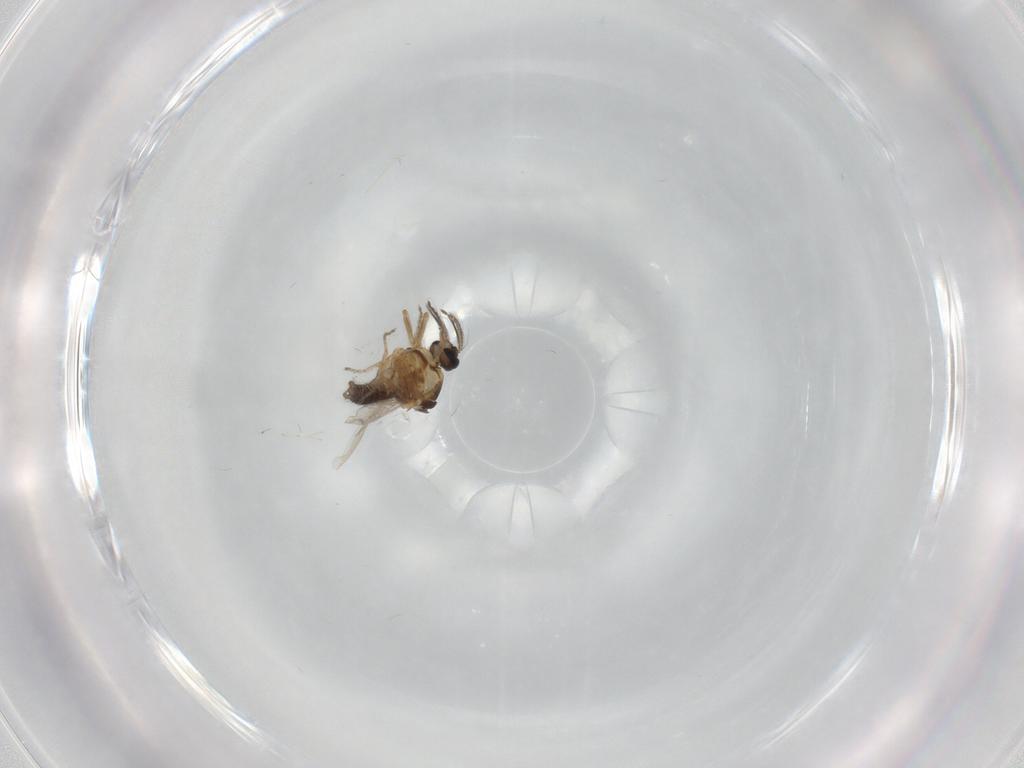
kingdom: Animalia
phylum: Arthropoda
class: Insecta
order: Diptera
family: Ceratopogonidae
